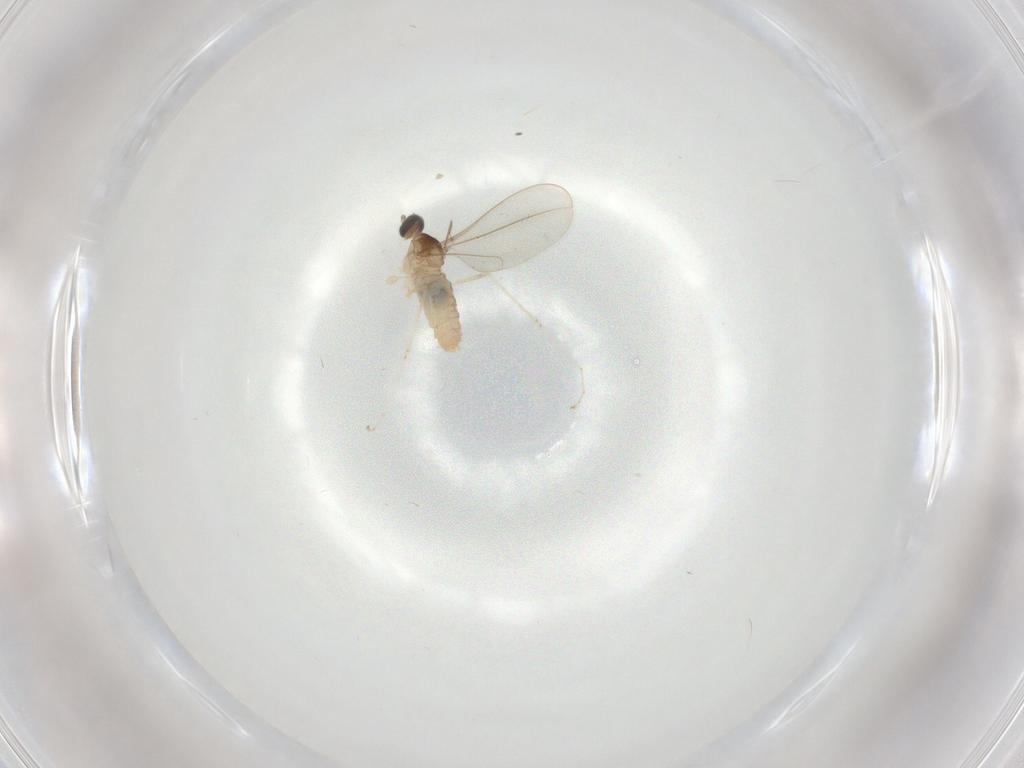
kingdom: Animalia
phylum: Arthropoda
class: Insecta
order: Diptera
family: Cecidomyiidae
